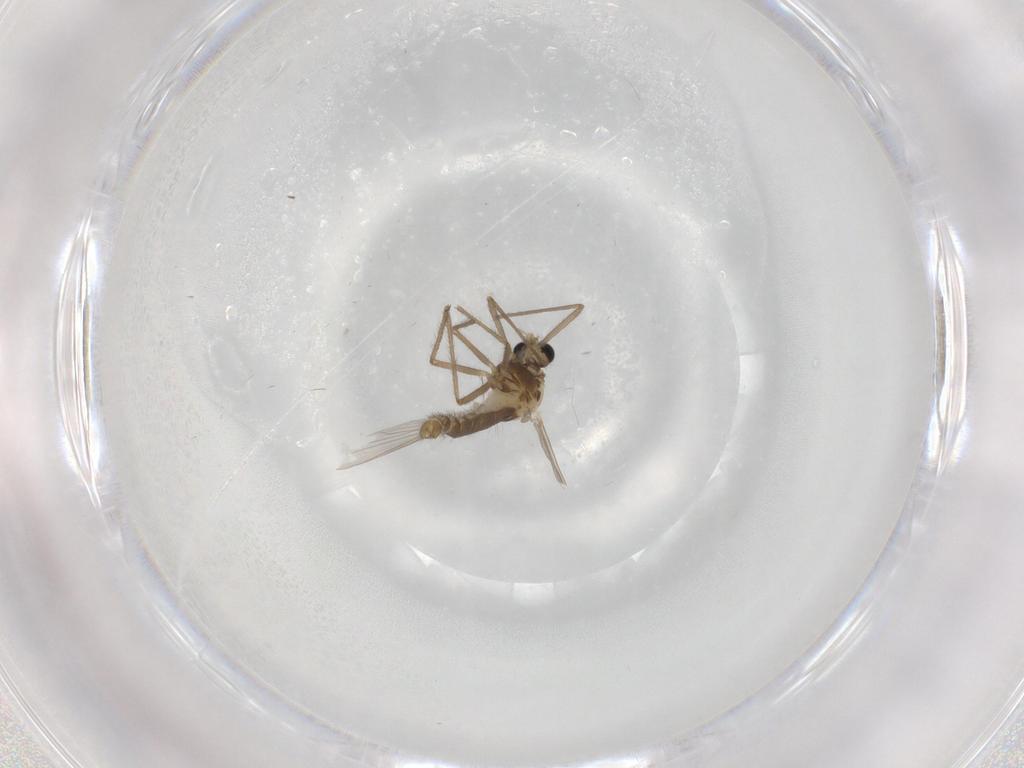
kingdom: Animalia
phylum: Arthropoda
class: Insecta
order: Diptera
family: Chironomidae
